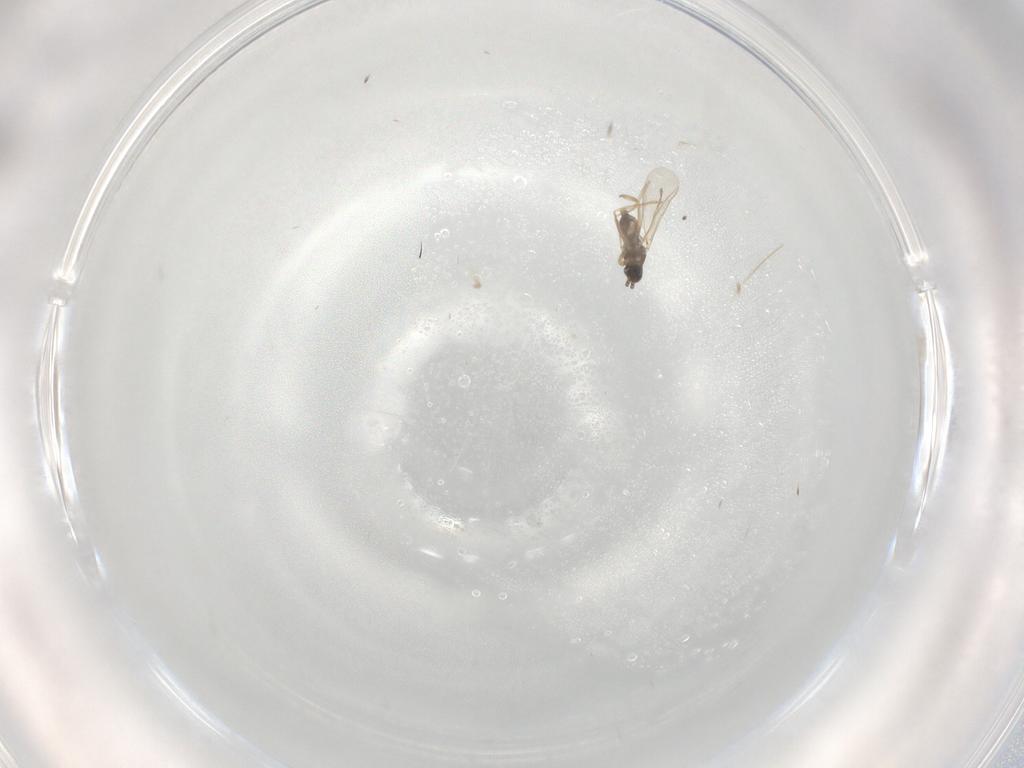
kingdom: Animalia
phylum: Arthropoda
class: Insecta
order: Diptera
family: Cecidomyiidae
